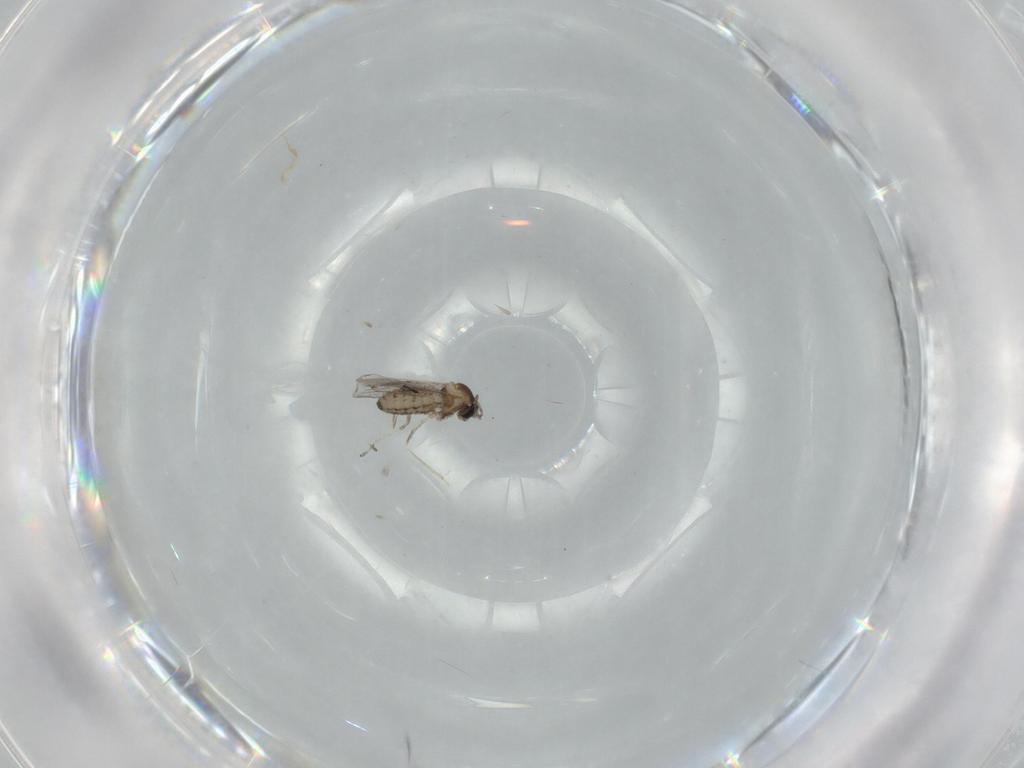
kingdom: Animalia
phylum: Arthropoda
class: Insecta
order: Diptera
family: Cecidomyiidae
